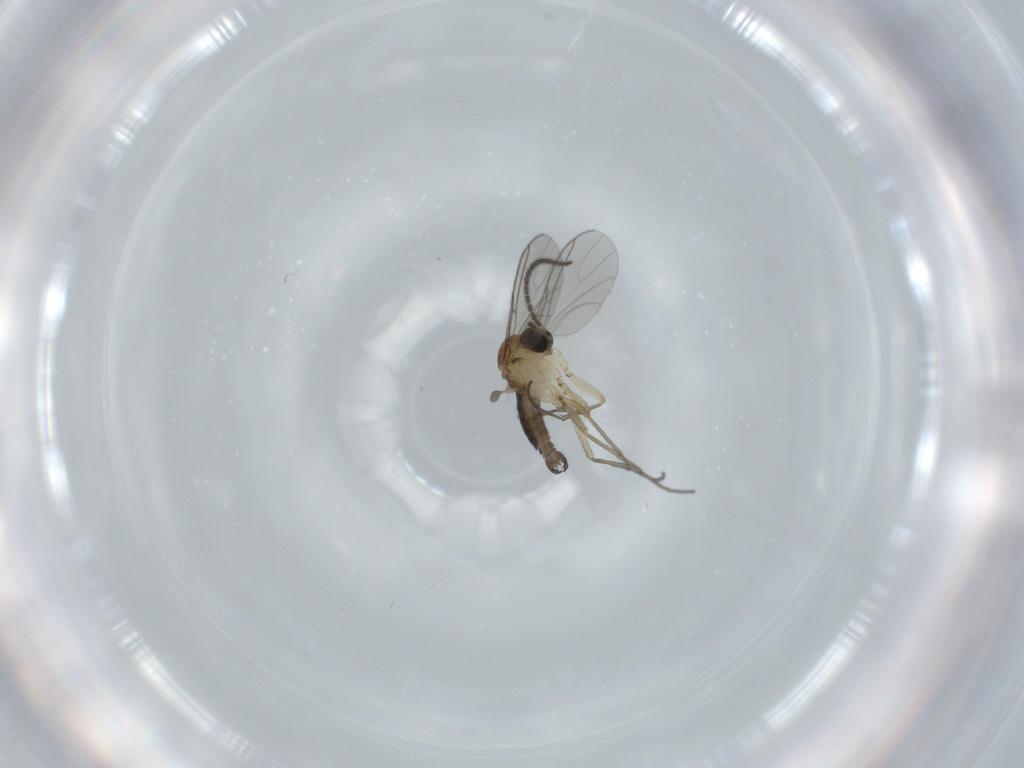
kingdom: Animalia
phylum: Arthropoda
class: Insecta
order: Diptera
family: Sciaridae
